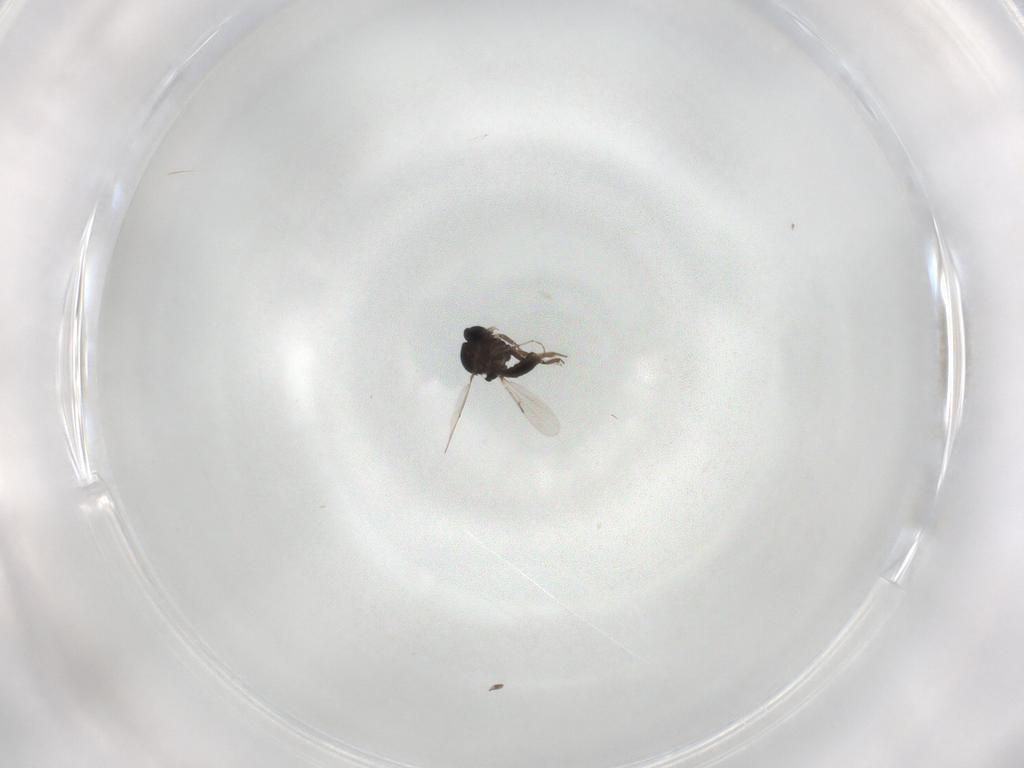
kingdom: Animalia
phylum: Arthropoda
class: Insecta
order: Diptera
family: Ceratopogonidae
